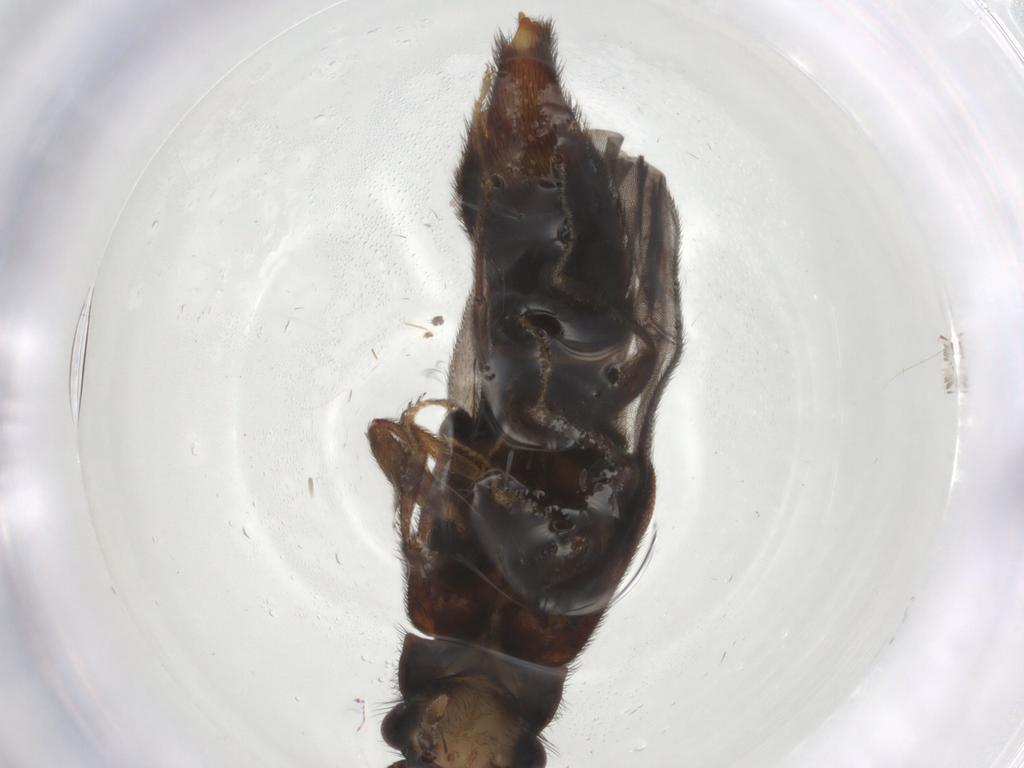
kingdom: Animalia
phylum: Arthropoda
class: Insecta
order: Coleoptera
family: Phengodidae
